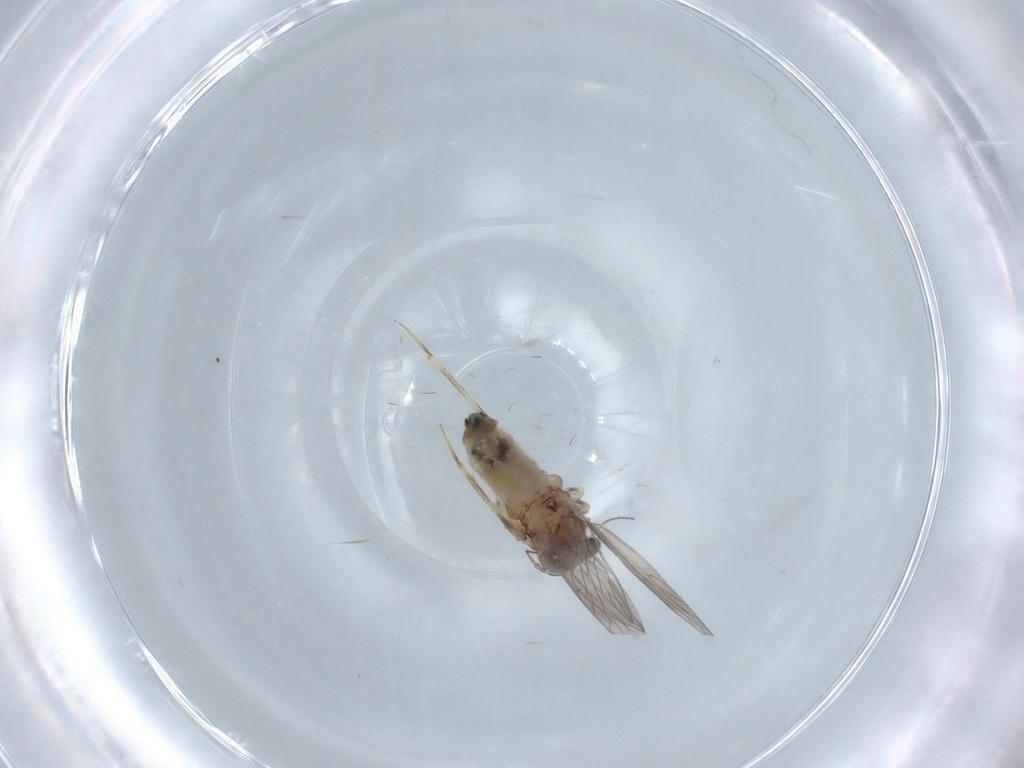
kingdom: Animalia
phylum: Arthropoda
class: Insecta
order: Psocodea
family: Lepidopsocidae
